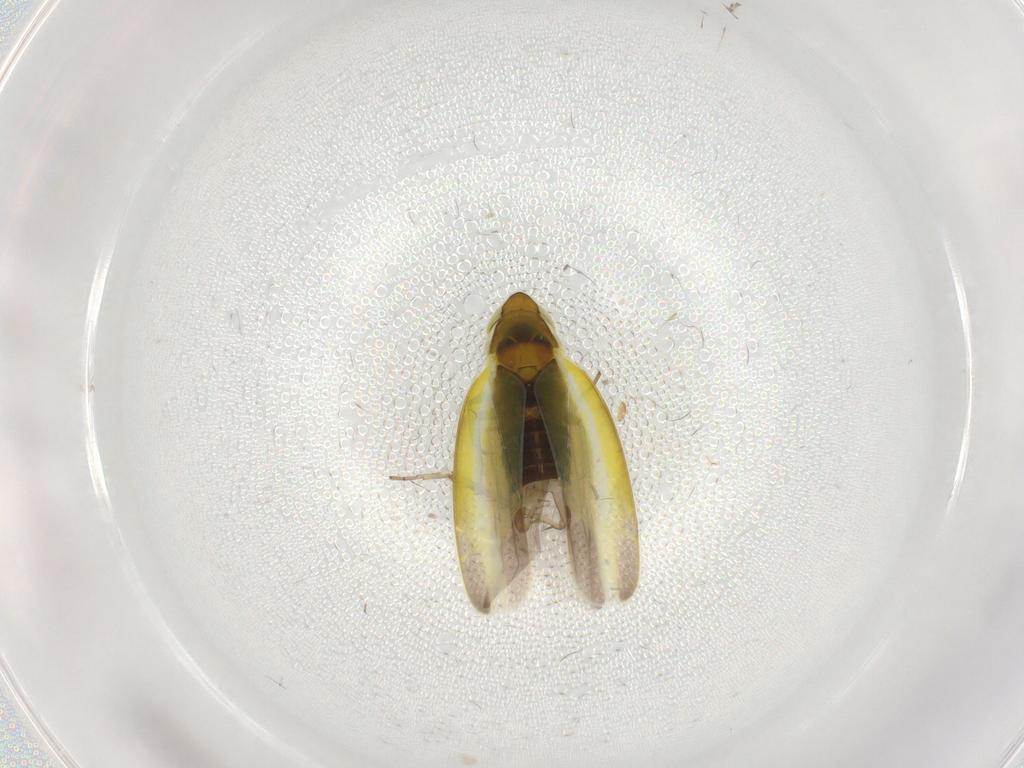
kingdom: Animalia
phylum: Arthropoda
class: Insecta
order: Hemiptera
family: Cicadellidae
